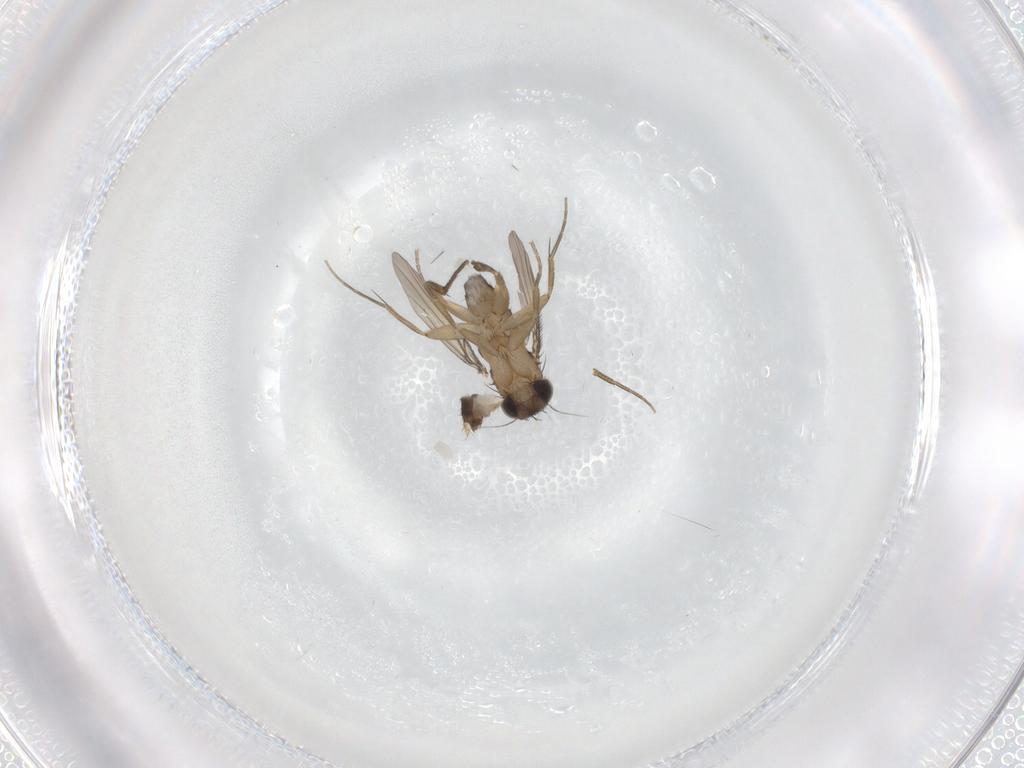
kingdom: Animalia
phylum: Arthropoda
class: Insecta
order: Diptera
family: Phoridae
